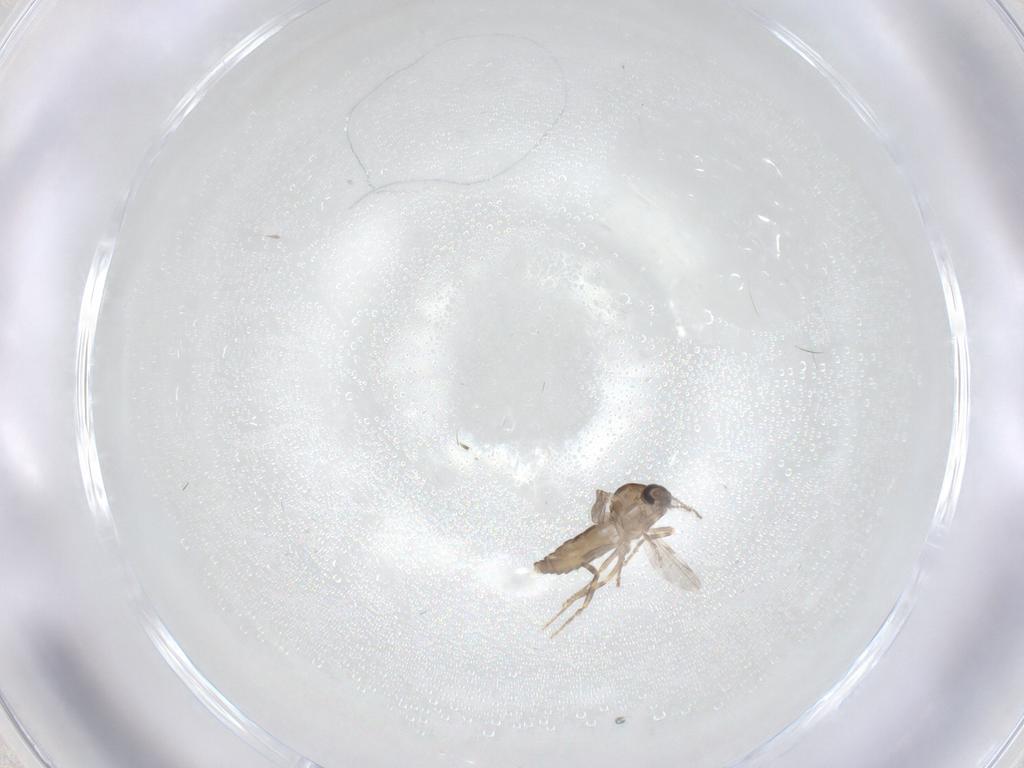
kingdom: Animalia
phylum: Arthropoda
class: Insecta
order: Diptera
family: Ceratopogonidae
